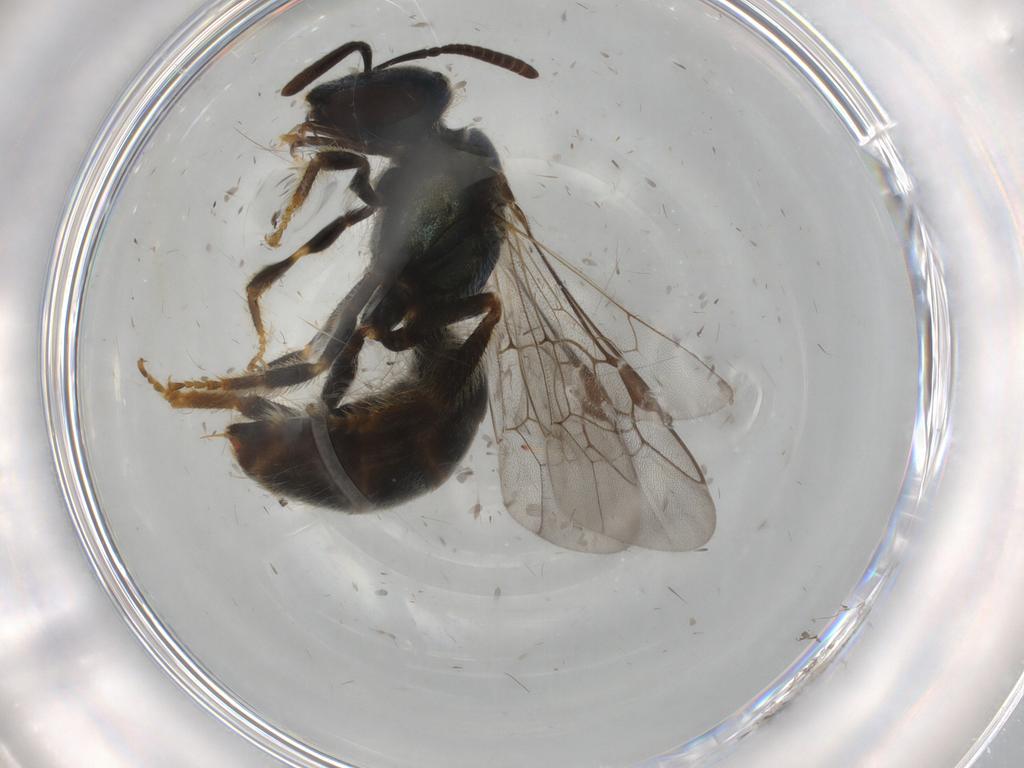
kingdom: Animalia
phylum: Arthropoda
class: Insecta
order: Hymenoptera
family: Halictidae
